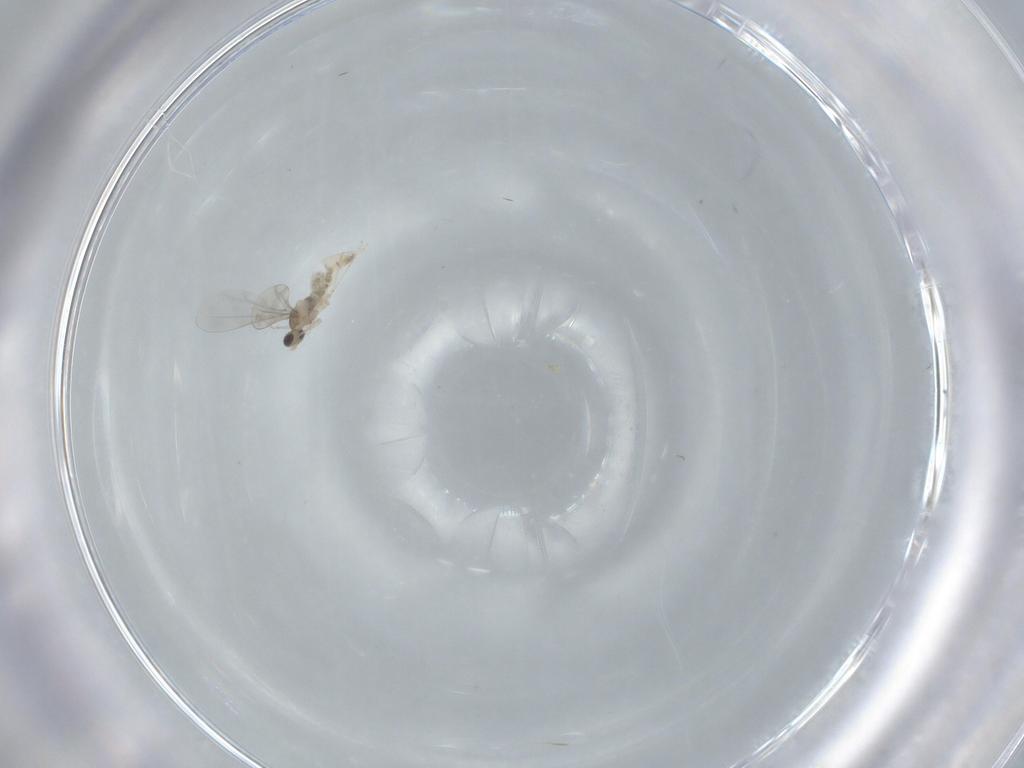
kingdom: Animalia
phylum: Arthropoda
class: Insecta
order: Diptera
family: Cecidomyiidae
